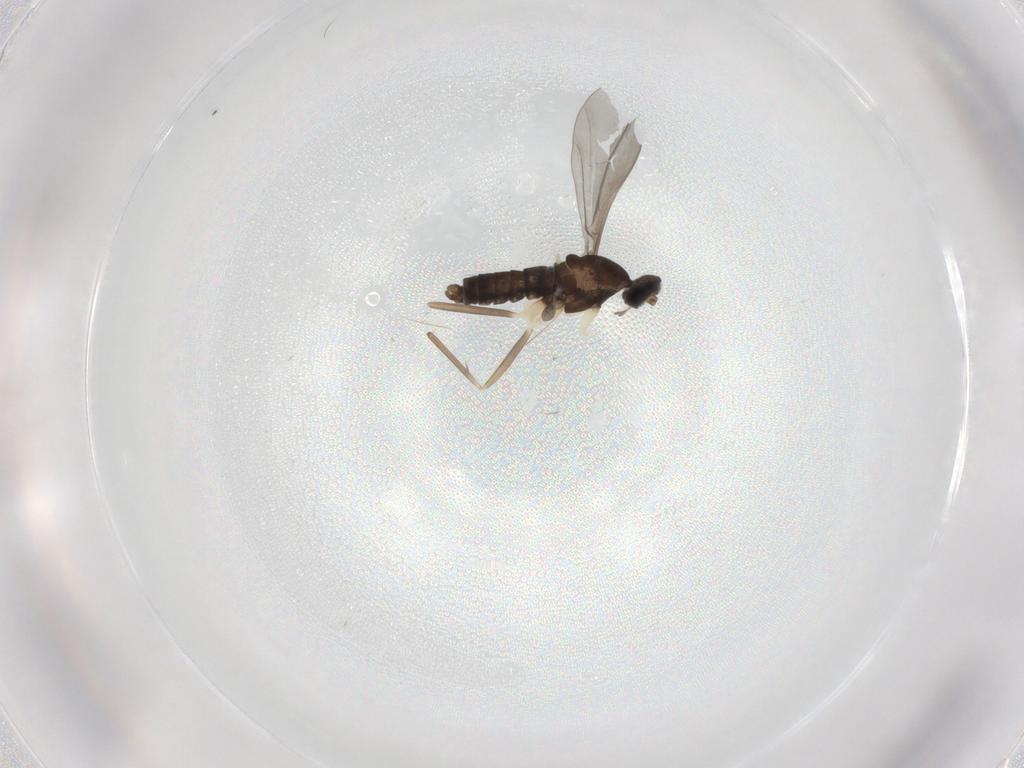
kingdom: Animalia
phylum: Arthropoda
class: Insecta
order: Diptera
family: Cecidomyiidae
